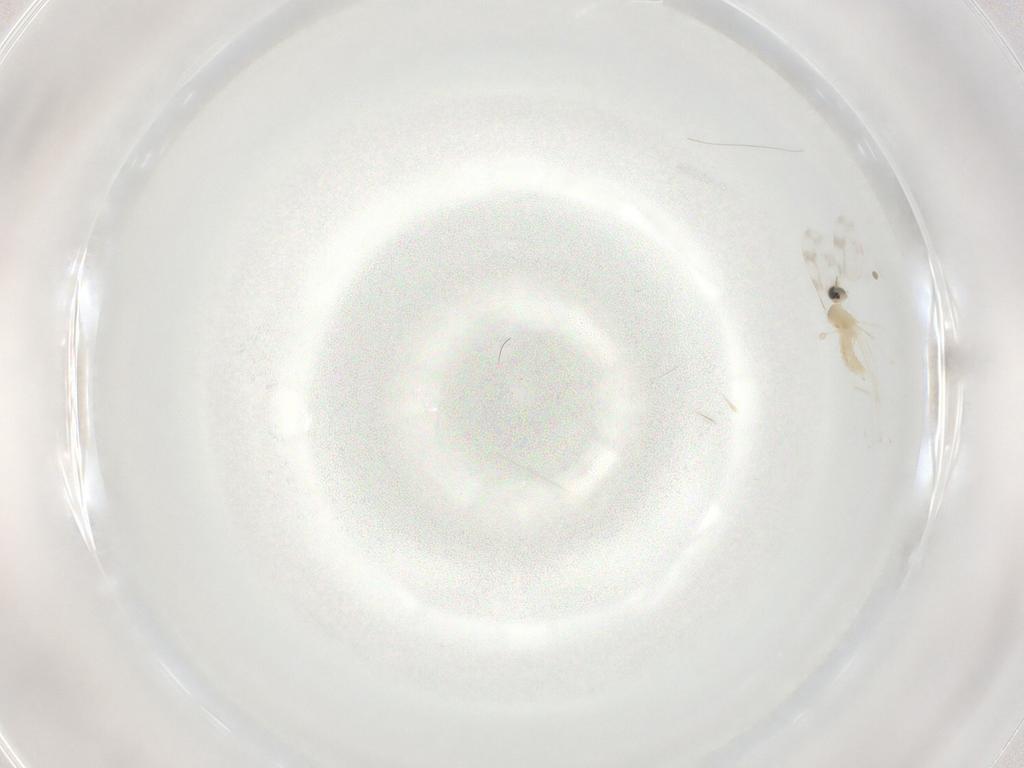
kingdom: Animalia
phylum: Arthropoda
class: Insecta
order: Diptera
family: Cecidomyiidae
